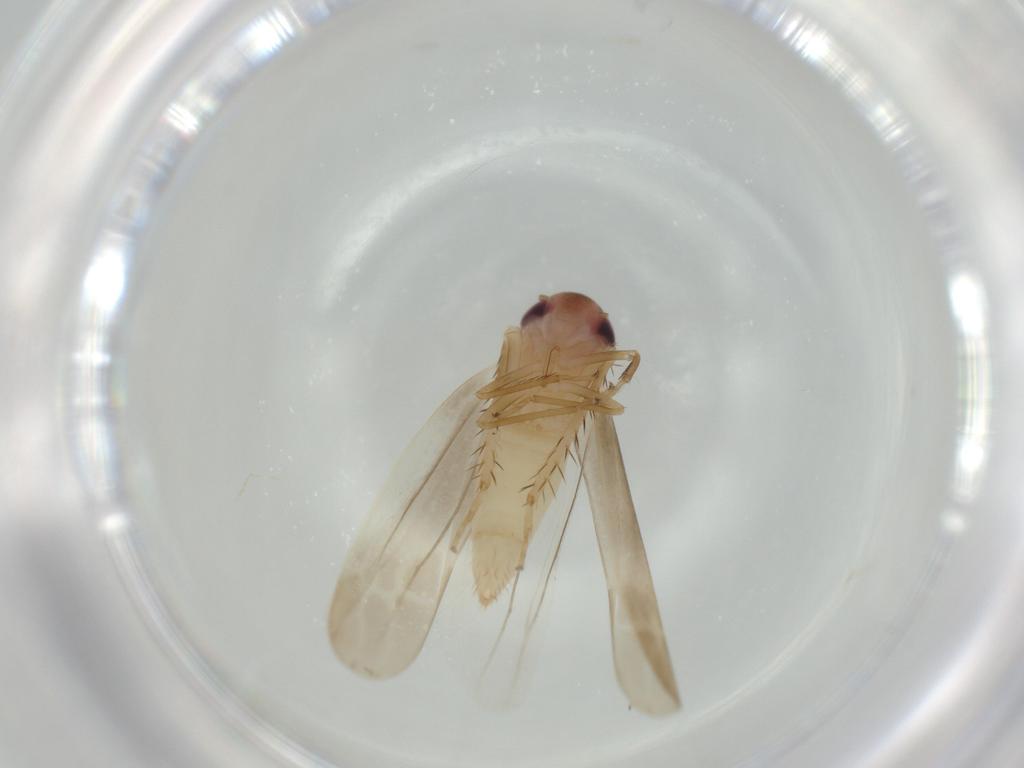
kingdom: Animalia
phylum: Arthropoda
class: Insecta
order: Hemiptera
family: Cicadellidae
